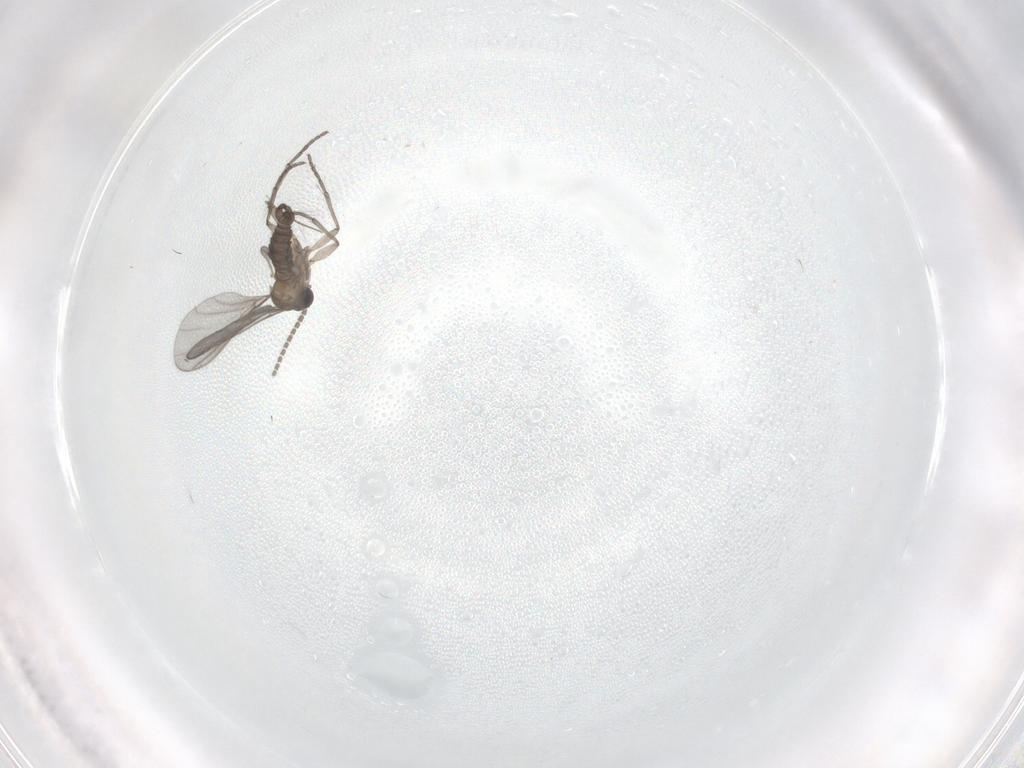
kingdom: Animalia
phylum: Arthropoda
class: Insecta
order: Diptera
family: Sciaridae
